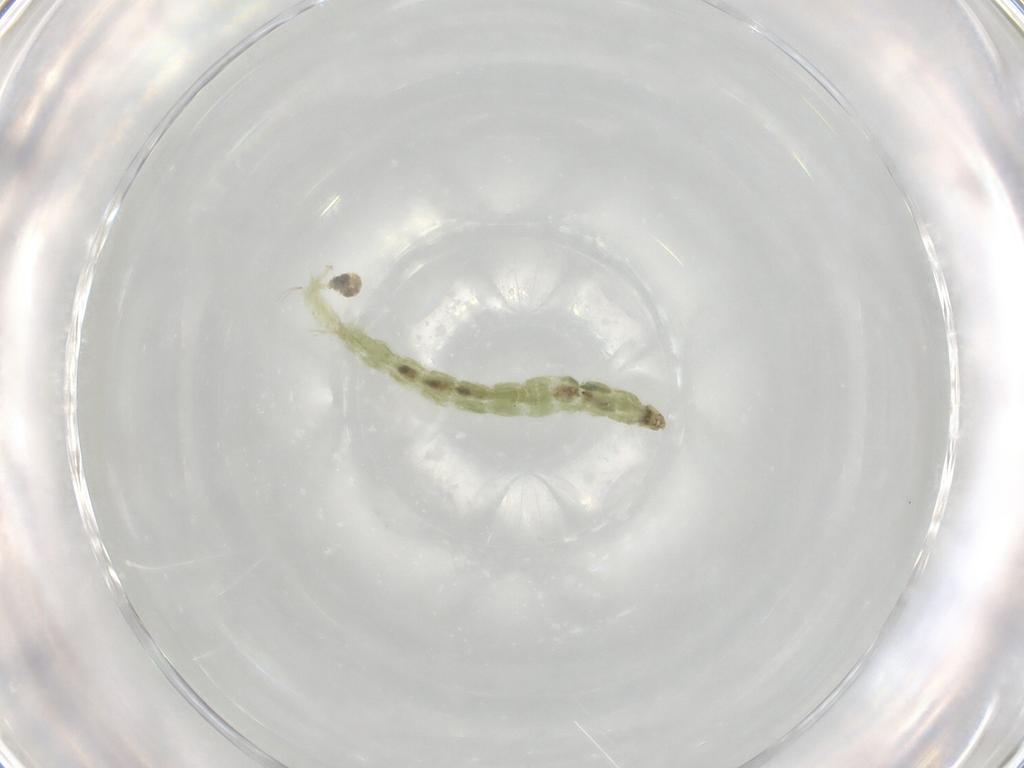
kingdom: Animalia
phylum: Arthropoda
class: Insecta
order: Diptera
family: Chironomidae
